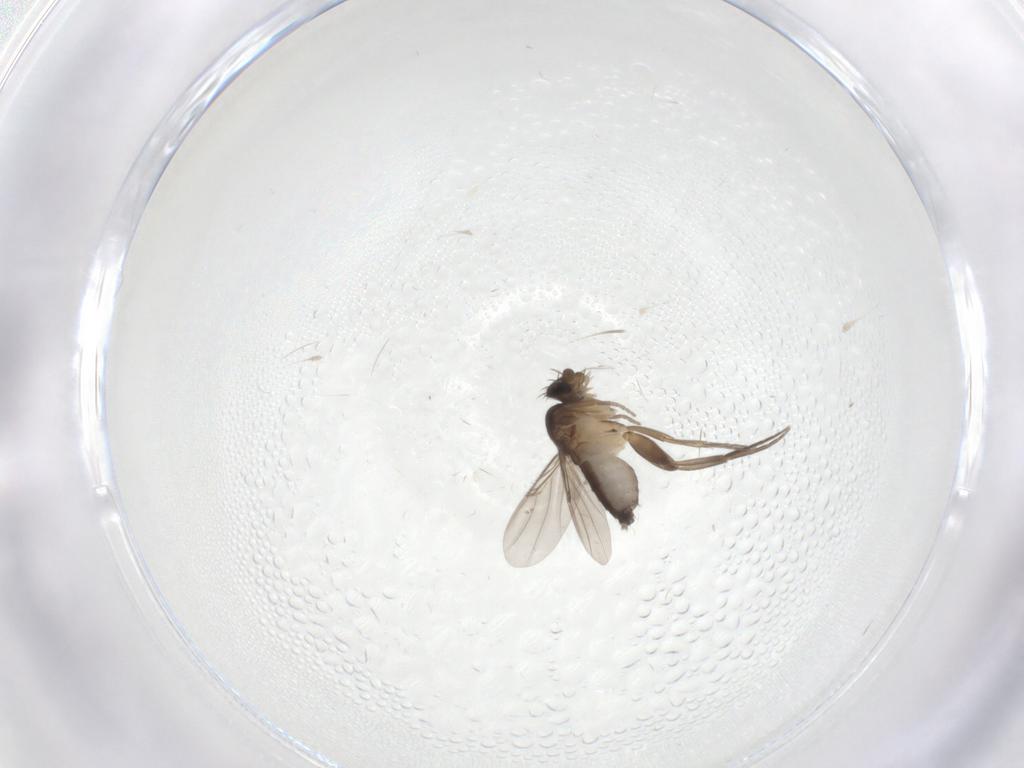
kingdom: Animalia
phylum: Arthropoda
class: Insecta
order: Diptera
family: Phoridae
